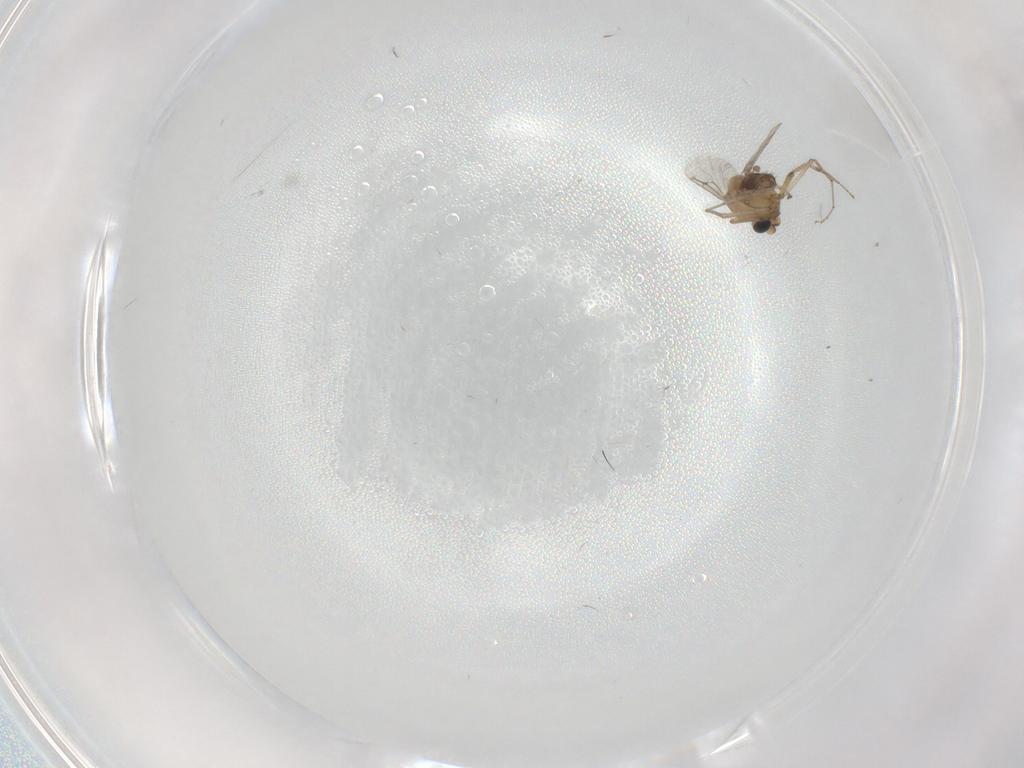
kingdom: Animalia
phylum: Arthropoda
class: Insecta
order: Diptera
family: Ceratopogonidae
